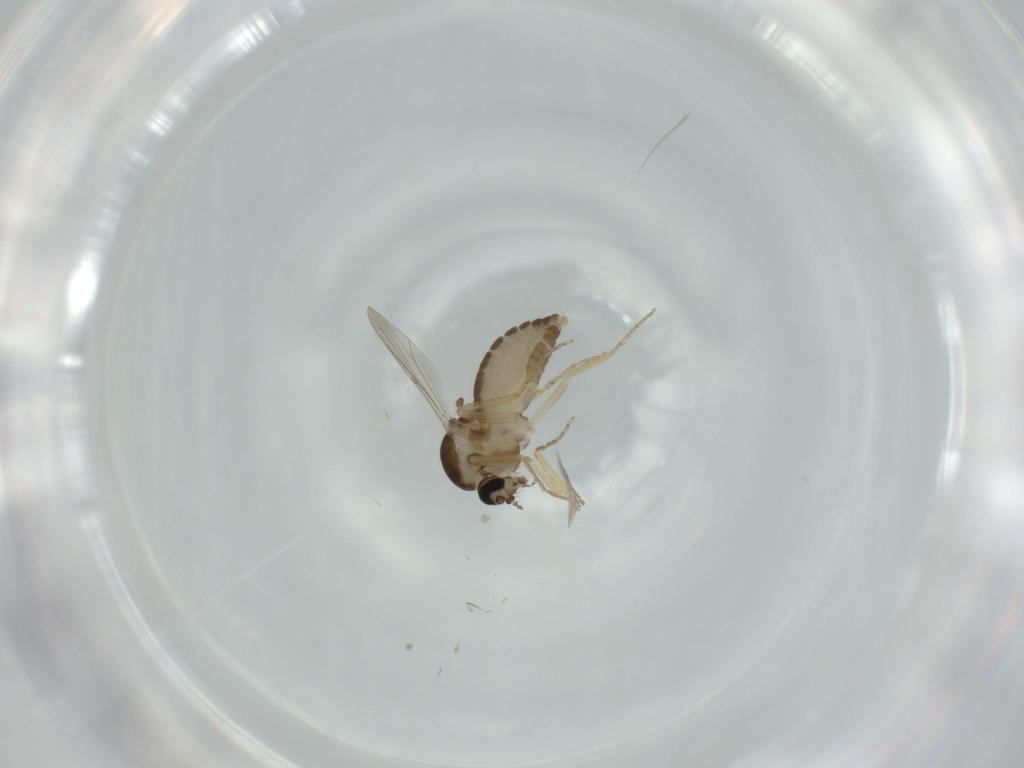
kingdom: Animalia
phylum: Arthropoda
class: Insecta
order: Diptera
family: Ceratopogonidae
